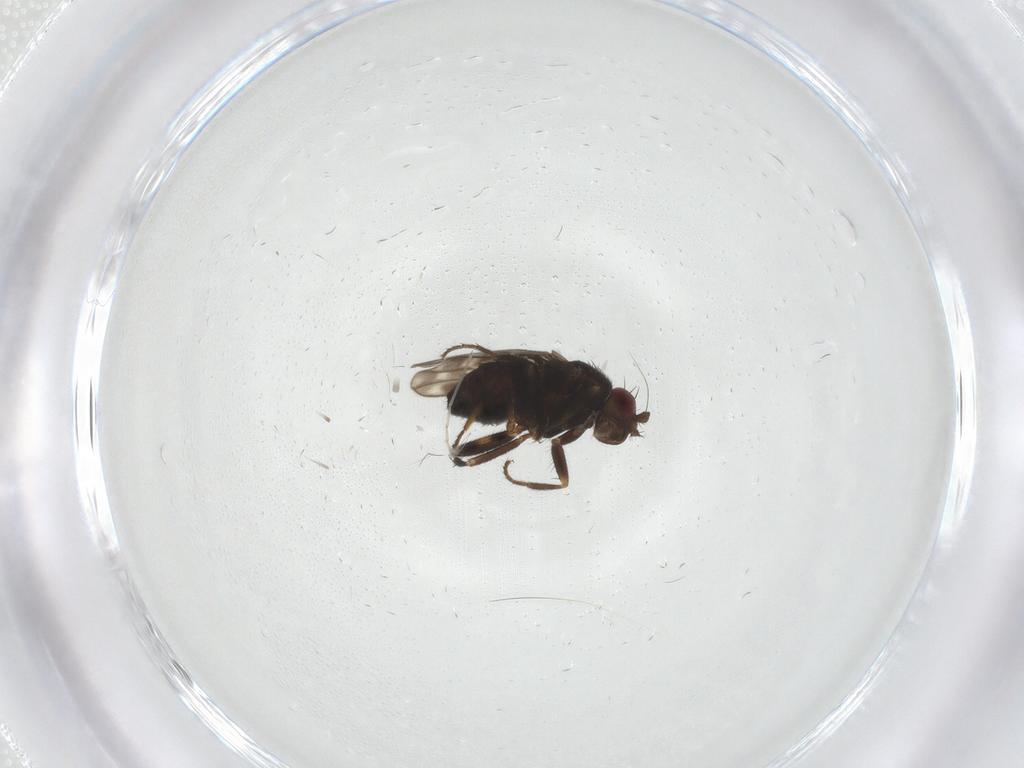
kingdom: Animalia
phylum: Arthropoda
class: Insecta
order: Diptera
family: Sphaeroceridae
